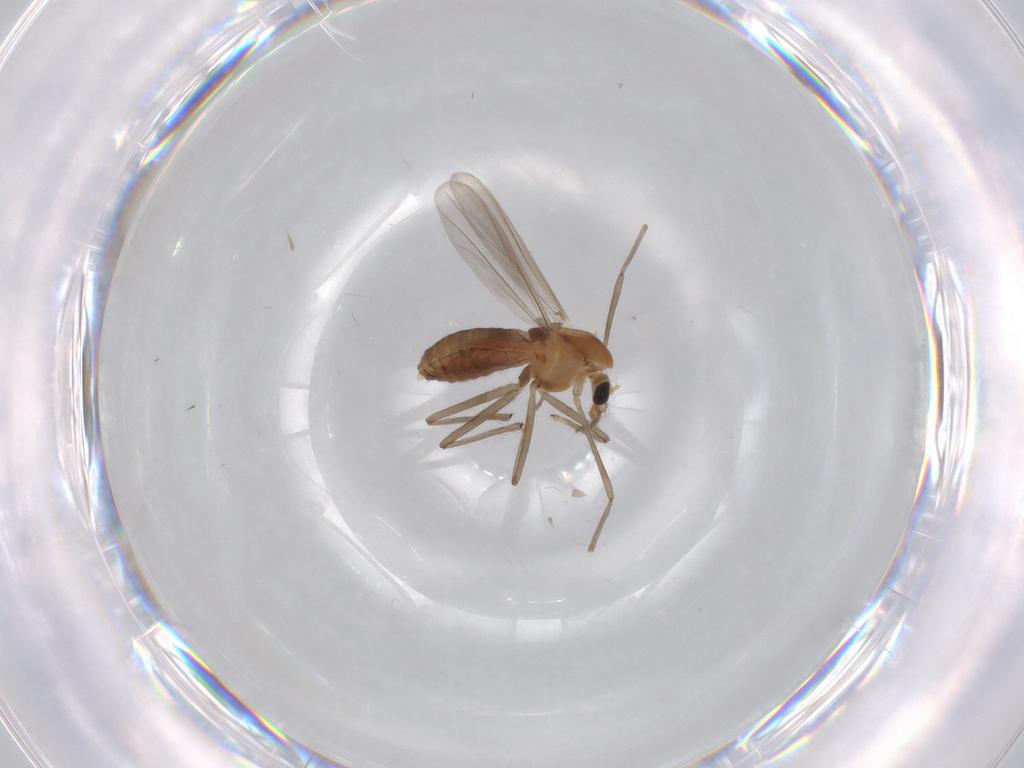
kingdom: Animalia
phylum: Arthropoda
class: Insecta
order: Diptera
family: Chironomidae
